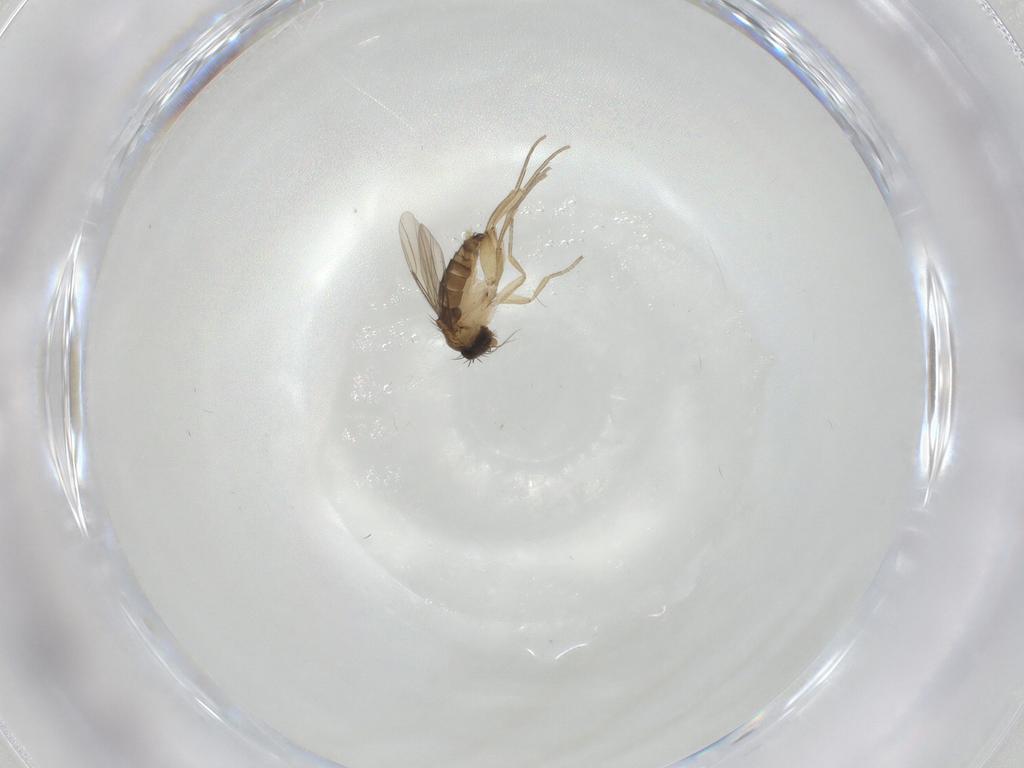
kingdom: Animalia
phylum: Arthropoda
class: Insecta
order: Diptera
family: Phoridae
